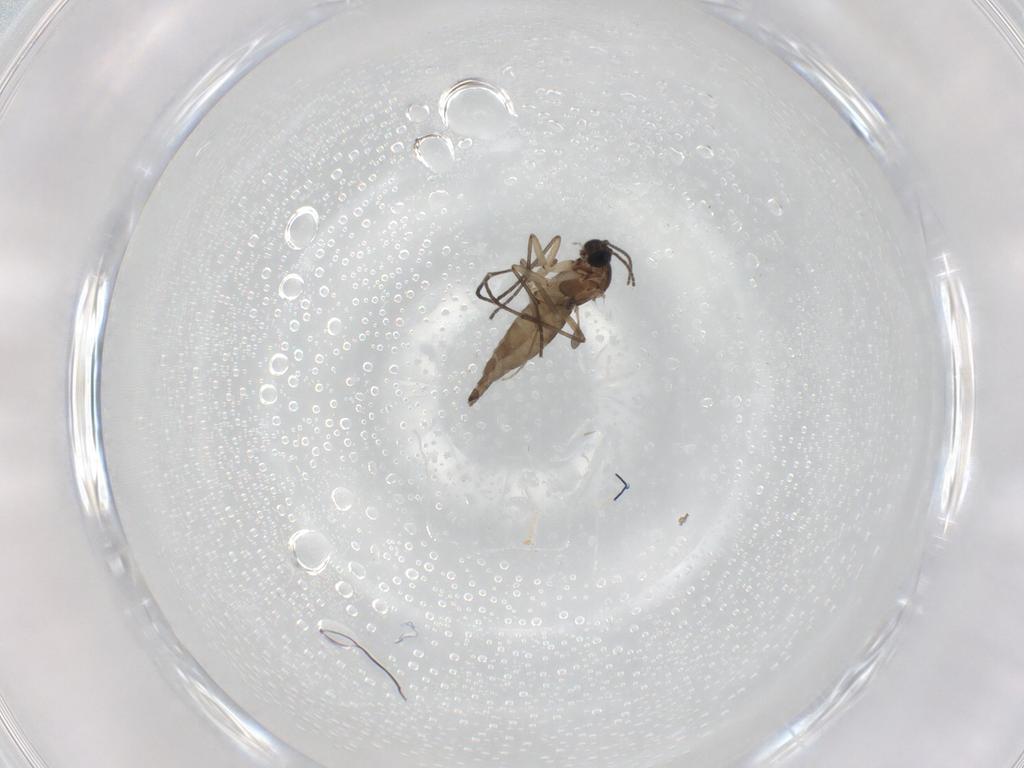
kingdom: Animalia
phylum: Arthropoda
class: Insecta
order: Diptera
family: Chironomidae
